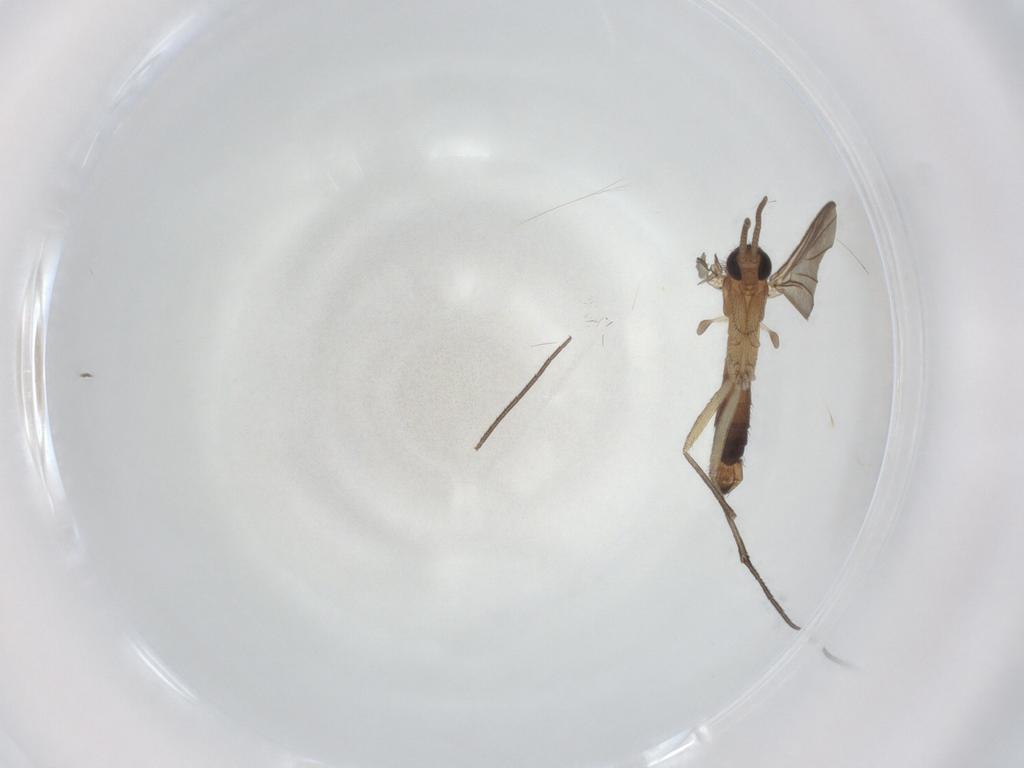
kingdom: Animalia
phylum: Arthropoda
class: Insecta
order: Diptera
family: Keroplatidae
